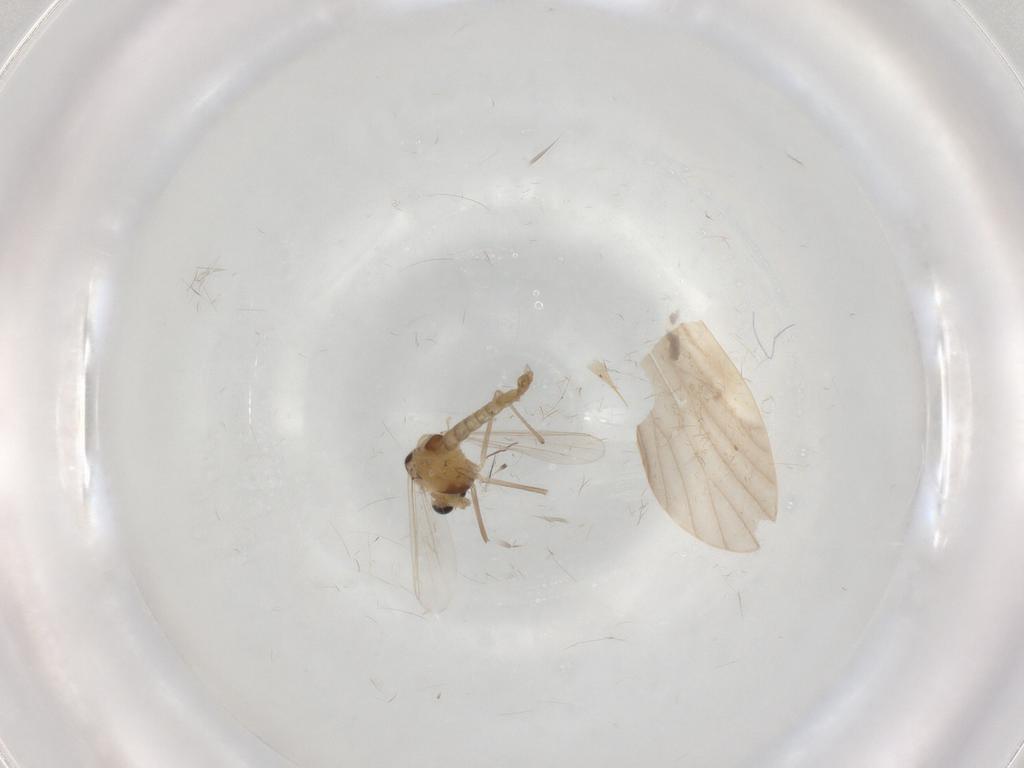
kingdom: Animalia
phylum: Arthropoda
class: Insecta
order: Diptera
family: Chironomidae
